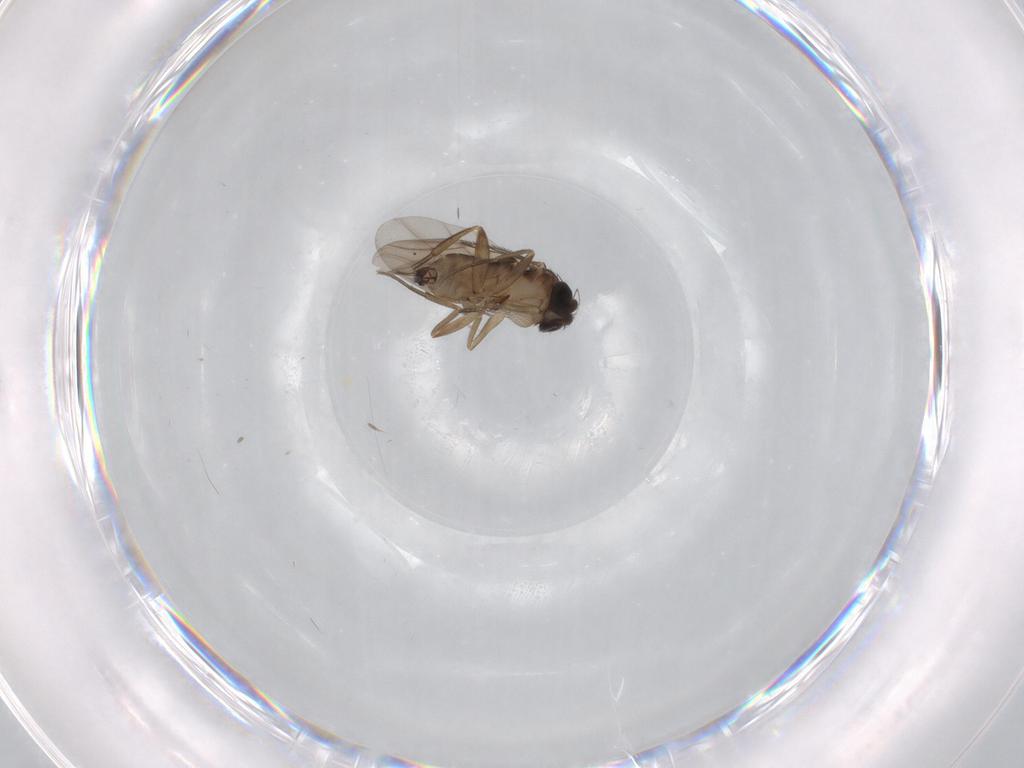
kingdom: Animalia
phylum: Arthropoda
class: Insecta
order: Diptera
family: Phoridae
